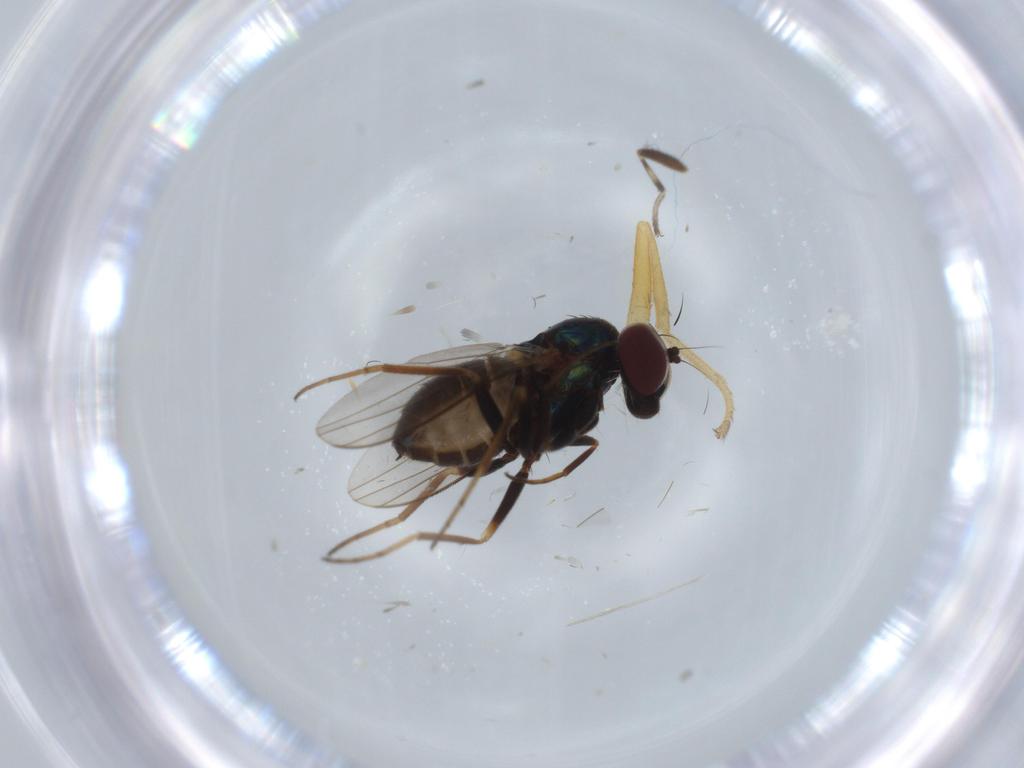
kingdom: Animalia
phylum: Arthropoda
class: Insecta
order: Diptera
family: Dolichopodidae
